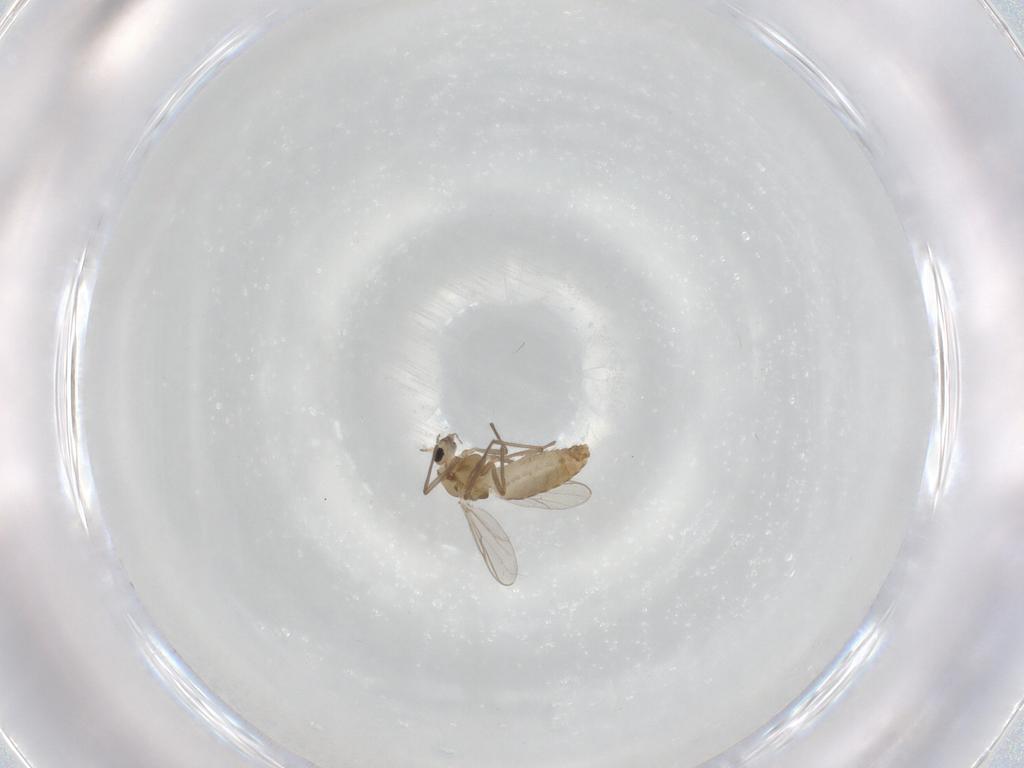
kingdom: Animalia
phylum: Arthropoda
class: Insecta
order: Diptera
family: Chironomidae
